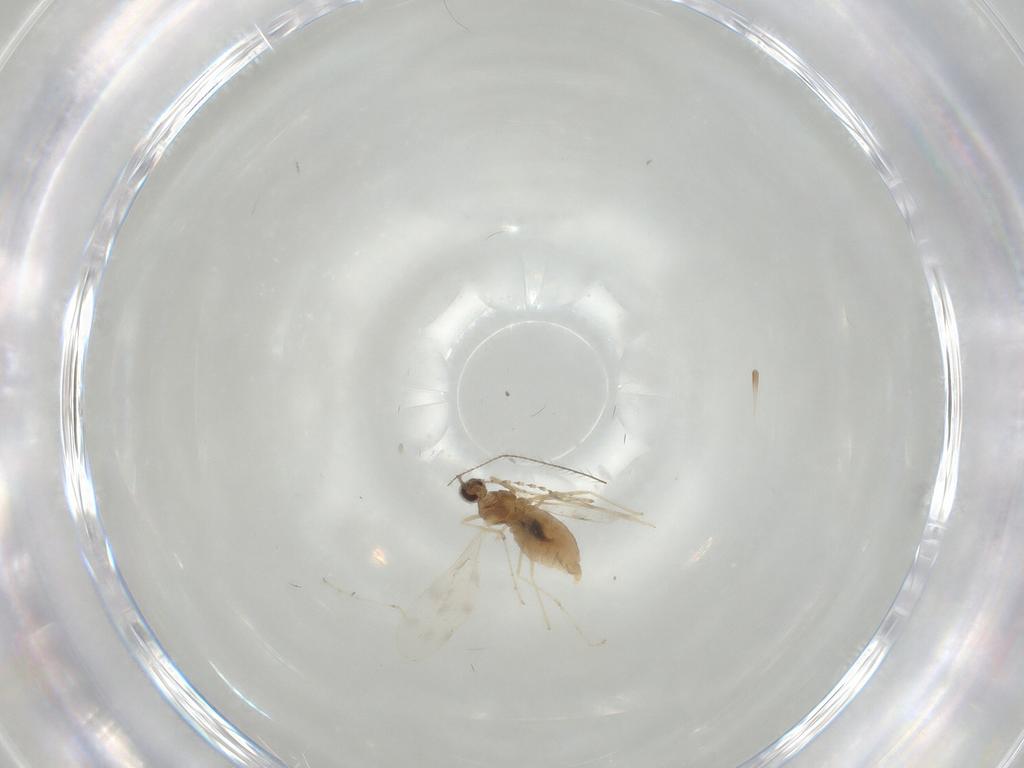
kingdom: Animalia
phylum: Arthropoda
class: Insecta
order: Diptera
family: Cecidomyiidae
